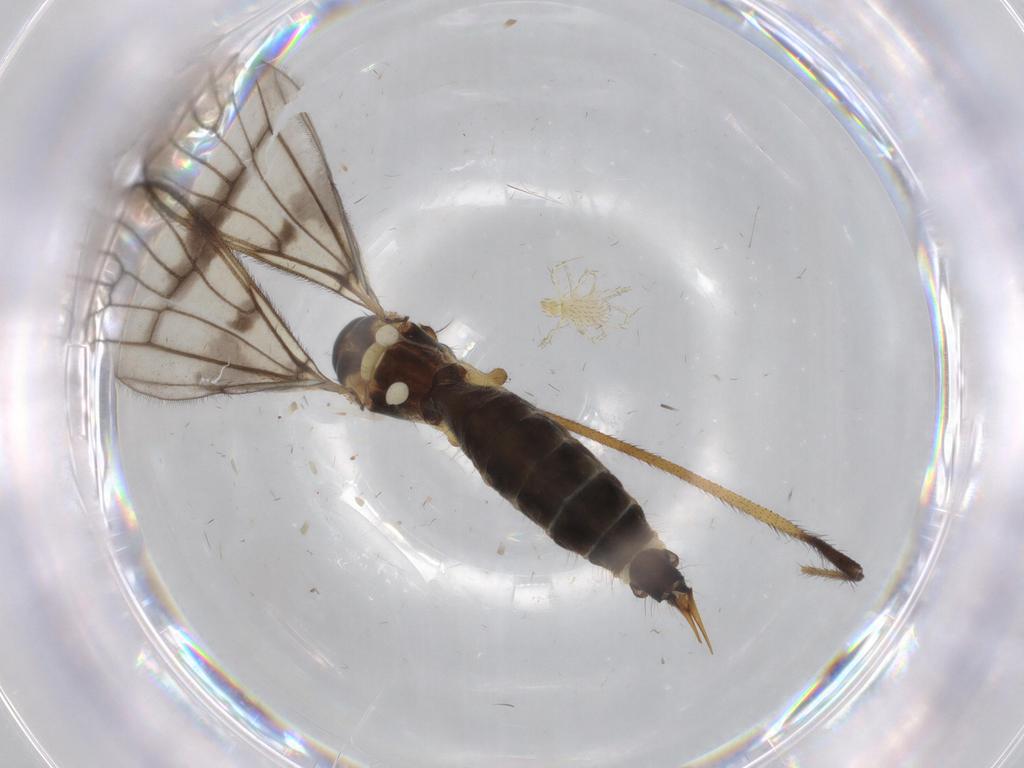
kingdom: Animalia
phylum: Arthropoda
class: Insecta
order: Diptera
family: Limoniidae
